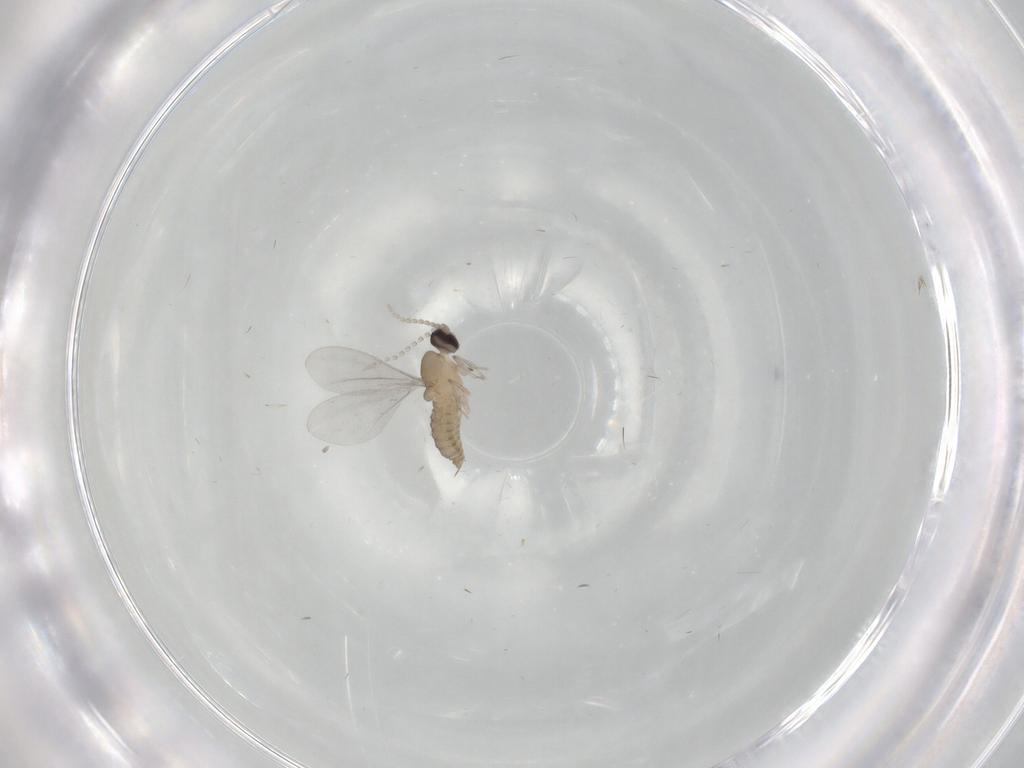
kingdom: Animalia
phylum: Arthropoda
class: Insecta
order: Diptera
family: Cecidomyiidae
